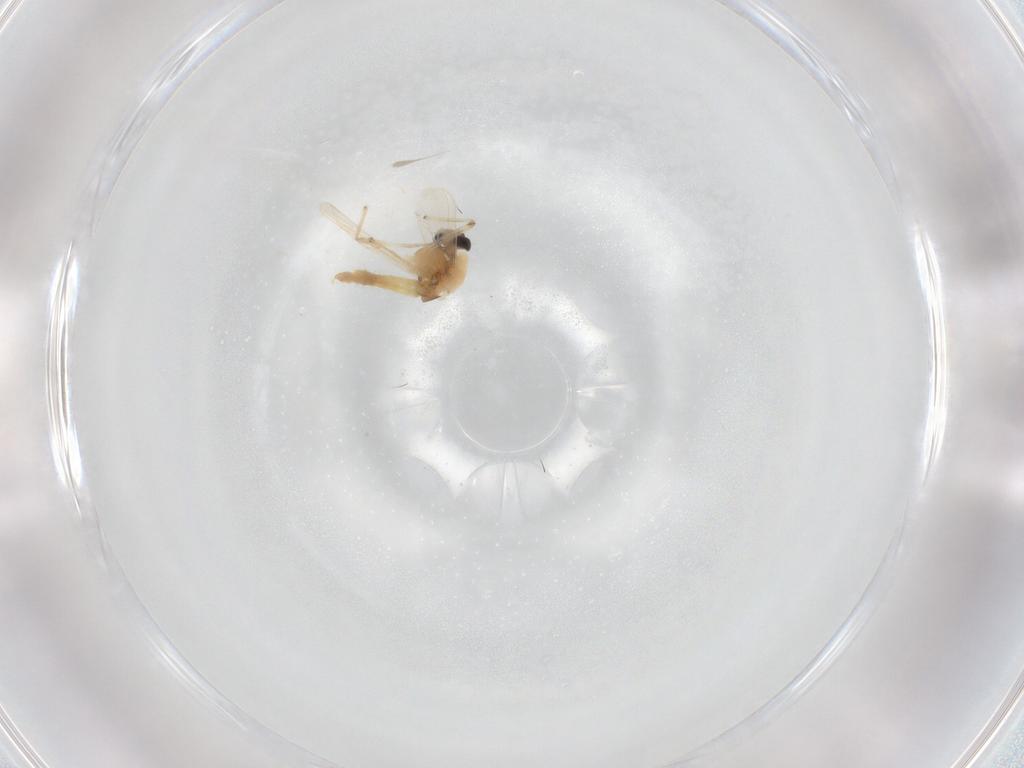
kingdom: Animalia
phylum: Arthropoda
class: Insecta
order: Diptera
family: Chironomidae
